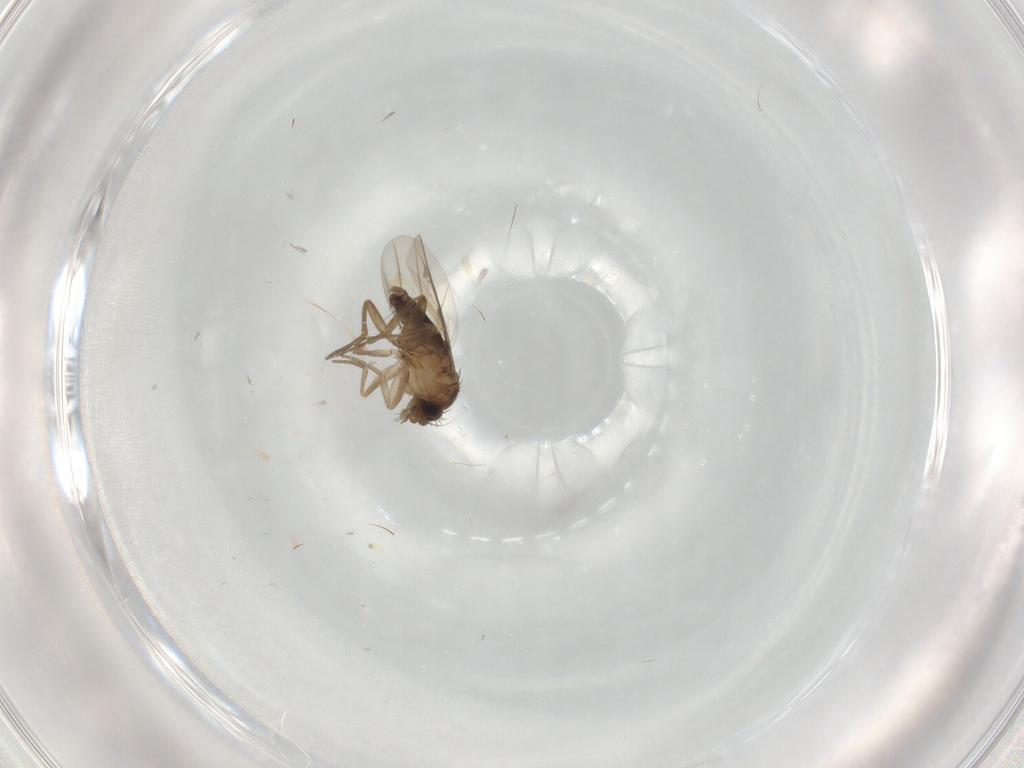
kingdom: Animalia
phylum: Arthropoda
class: Insecta
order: Diptera
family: Phoridae
